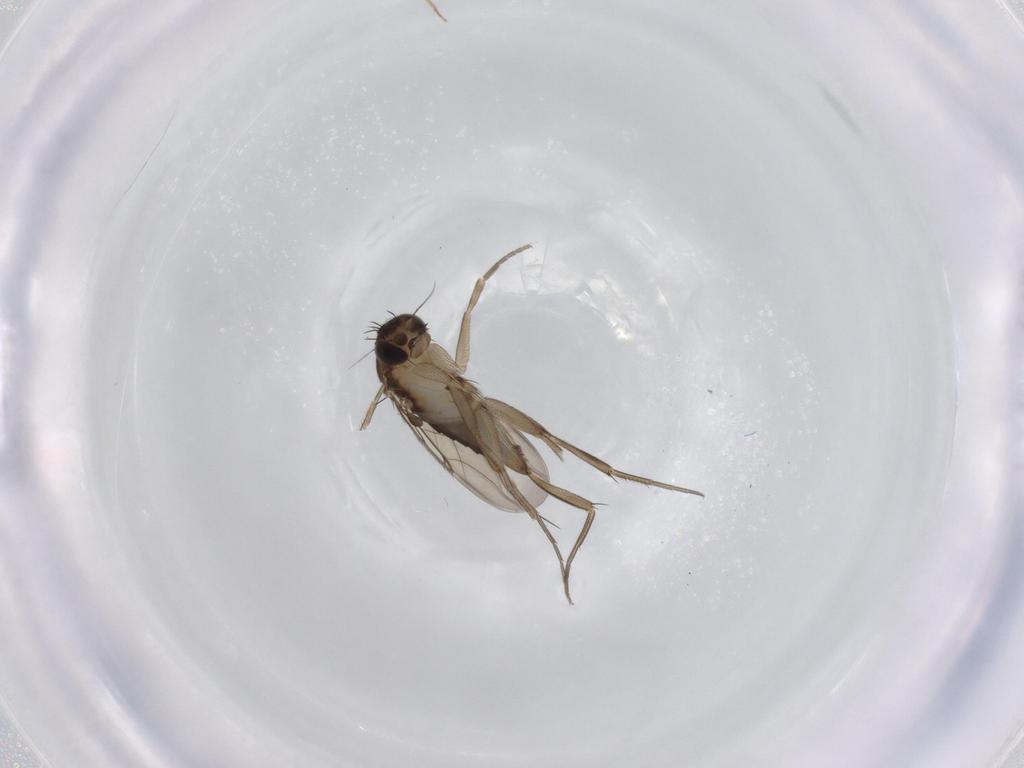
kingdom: Animalia
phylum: Arthropoda
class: Insecta
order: Diptera
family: Phoridae
